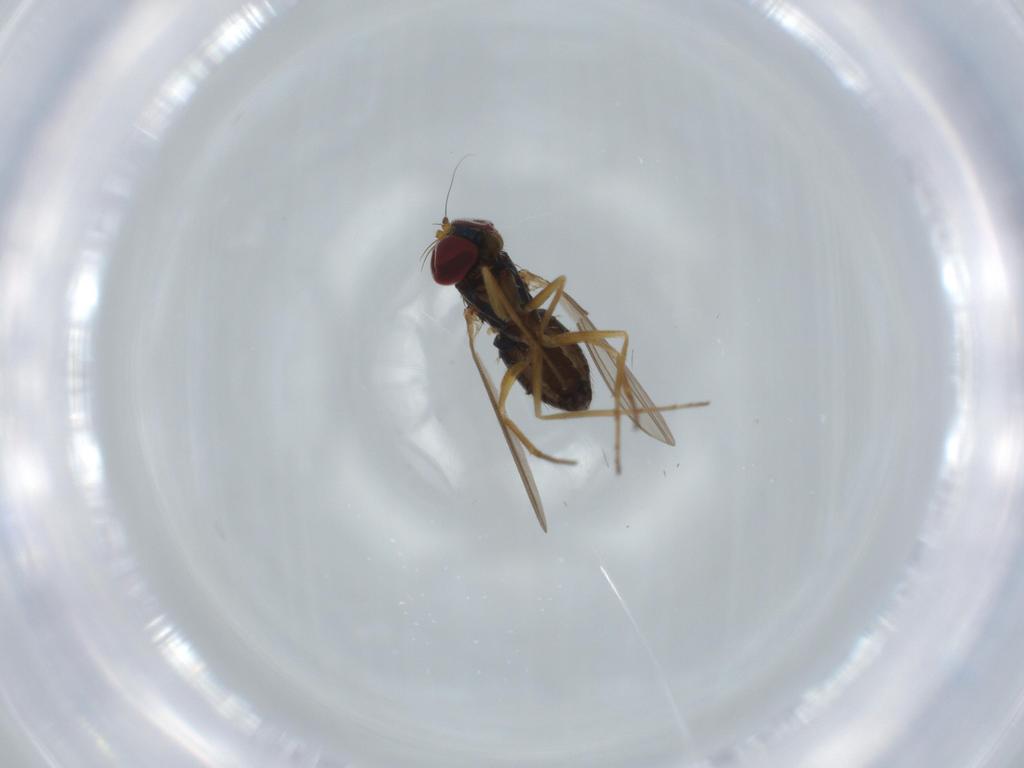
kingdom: Animalia
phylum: Arthropoda
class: Insecta
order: Diptera
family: Dolichopodidae
